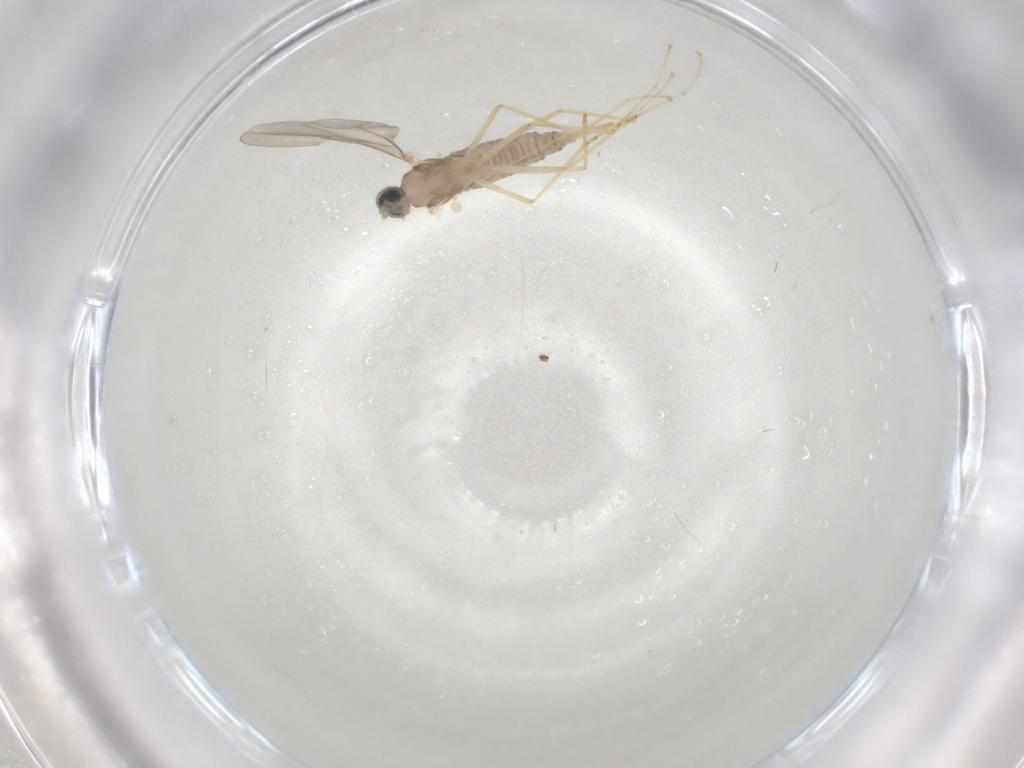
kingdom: Animalia
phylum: Arthropoda
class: Insecta
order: Diptera
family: Cecidomyiidae
